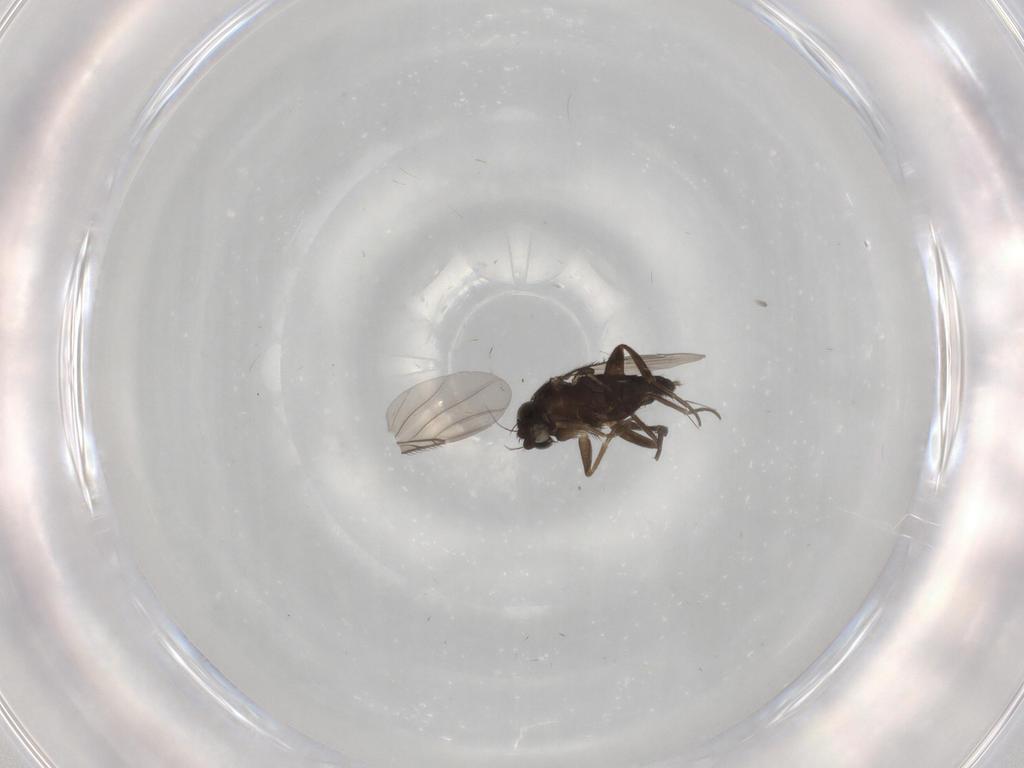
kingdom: Animalia
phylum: Arthropoda
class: Insecta
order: Diptera
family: Phoridae
